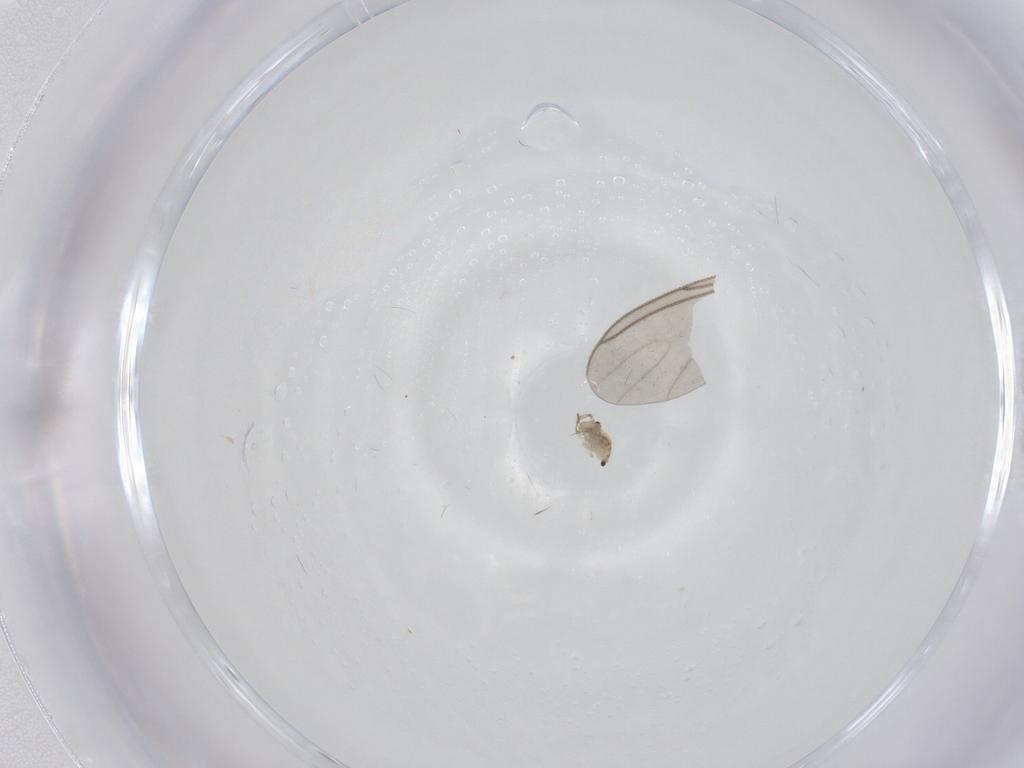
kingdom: Animalia
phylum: Arthropoda
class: Insecta
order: Diptera
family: Sciaridae
